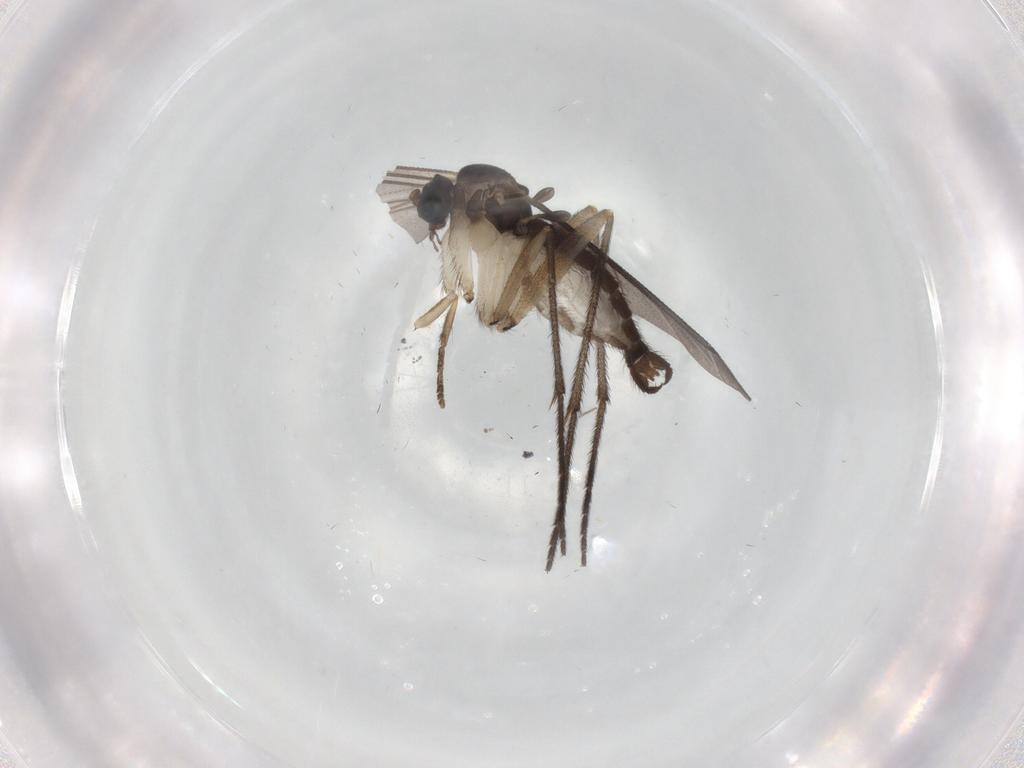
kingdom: Animalia
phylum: Arthropoda
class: Insecta
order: Diptera
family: Sciaridae
